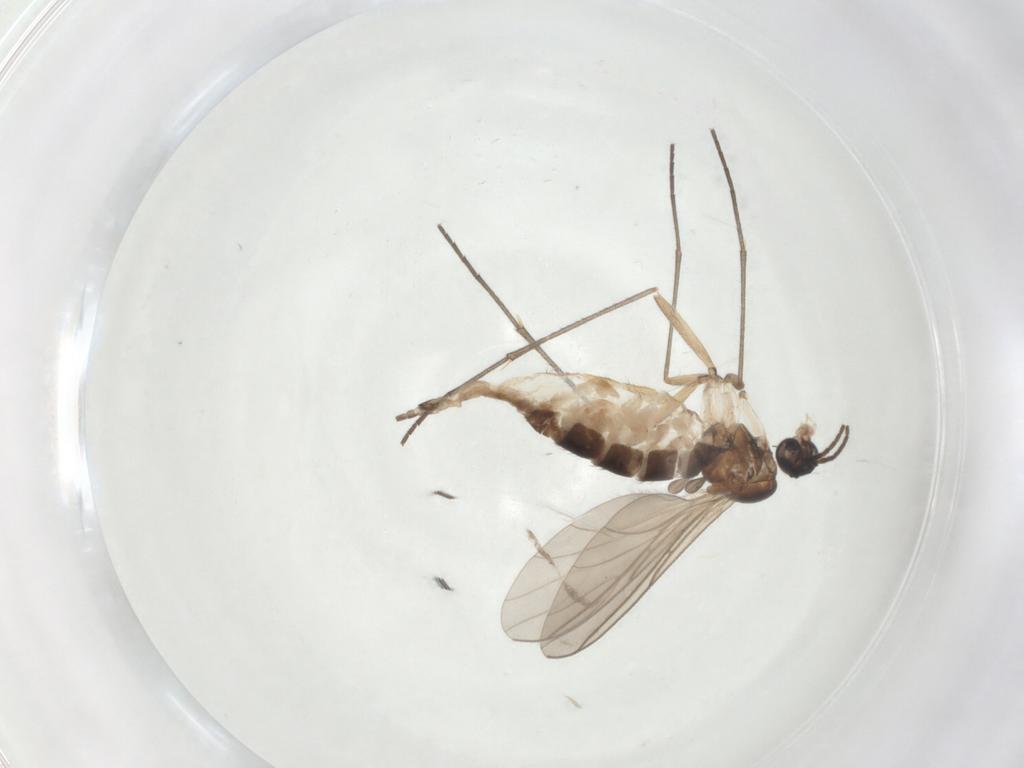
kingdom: Animalia
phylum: Arthropoda
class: Insecta
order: Diptera
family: Sciaridae
